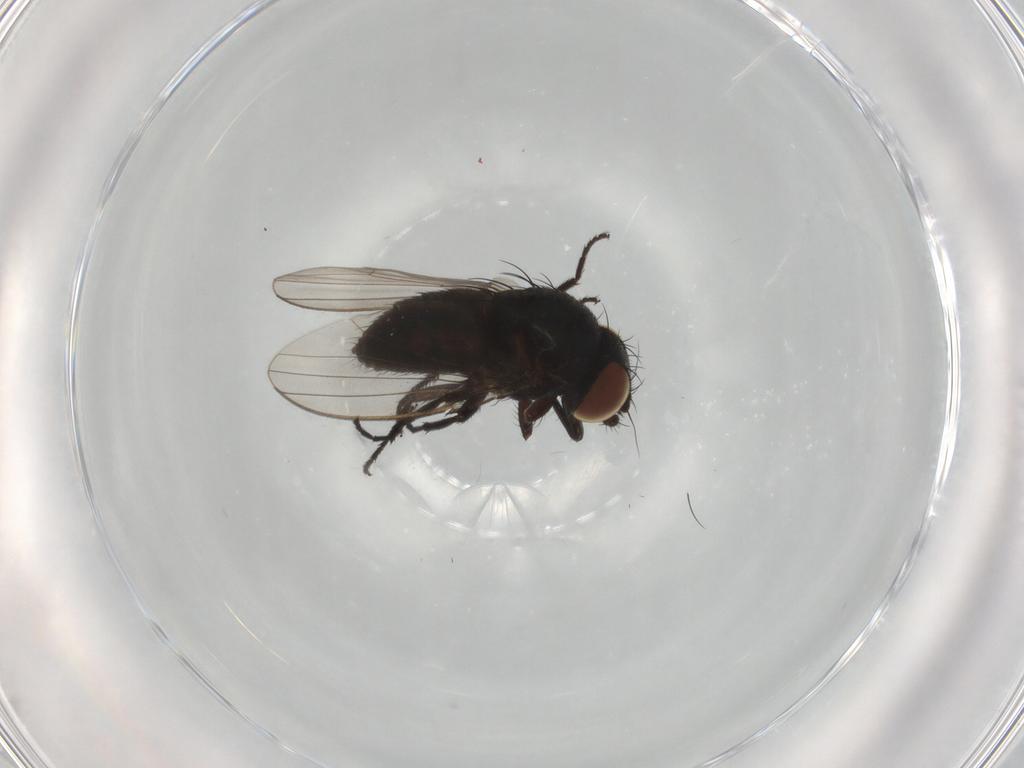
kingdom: Animalia
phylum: Arthropoda
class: Insecta
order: Diptera
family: Milichiidae
